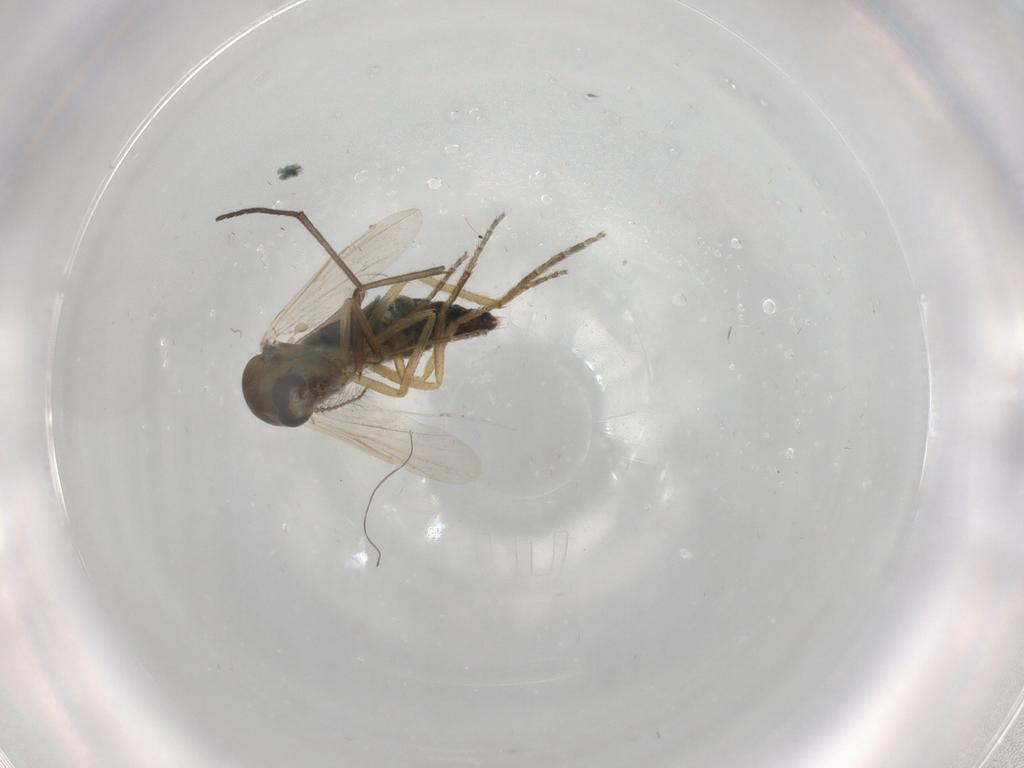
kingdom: Animalia
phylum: Arthropoda
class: Insecta
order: Diptera
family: Ceratopogonidae
